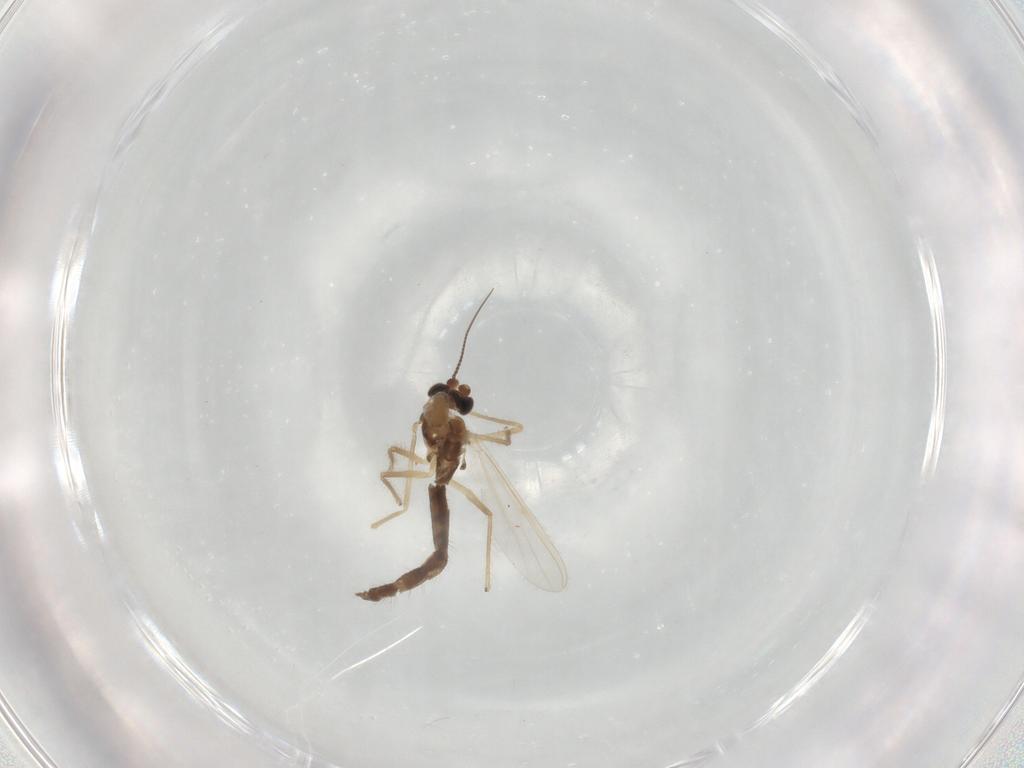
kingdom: Animalia
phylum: Arthropoda
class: Insecta
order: Diptera
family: Chironomidae
